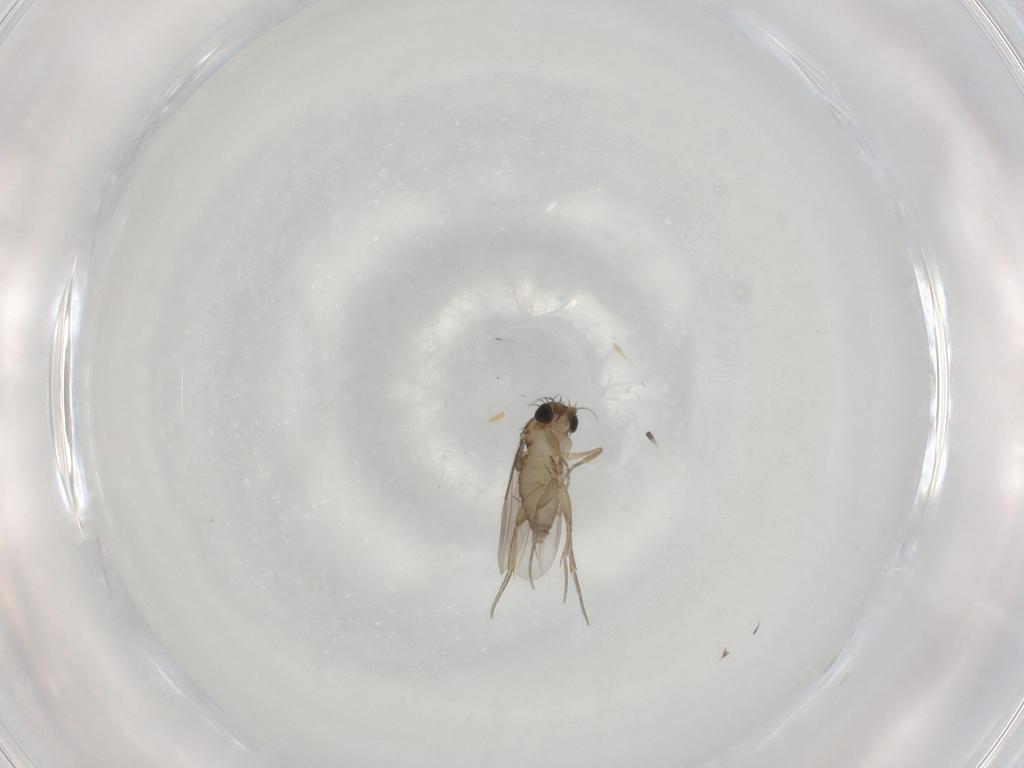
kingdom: Animalia
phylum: Arthropoda
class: Insecta
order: Diptera
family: Phoridae
